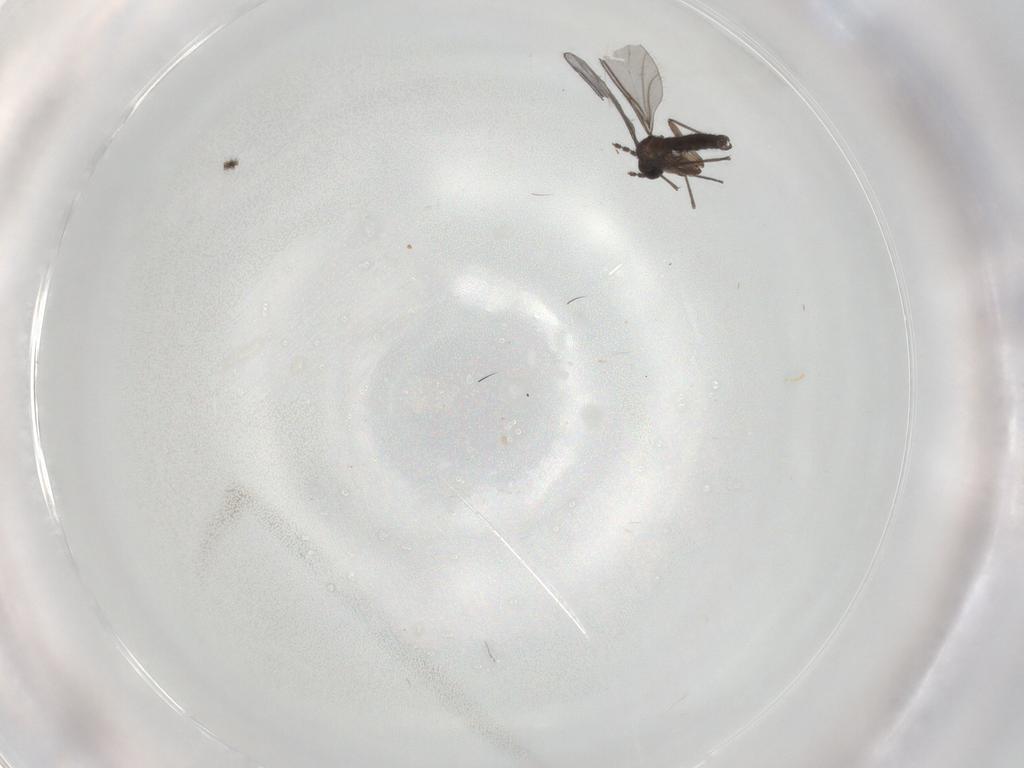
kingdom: Animalia
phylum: Arthropoda
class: Insecta
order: Diptera
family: Cecidomyiidae
